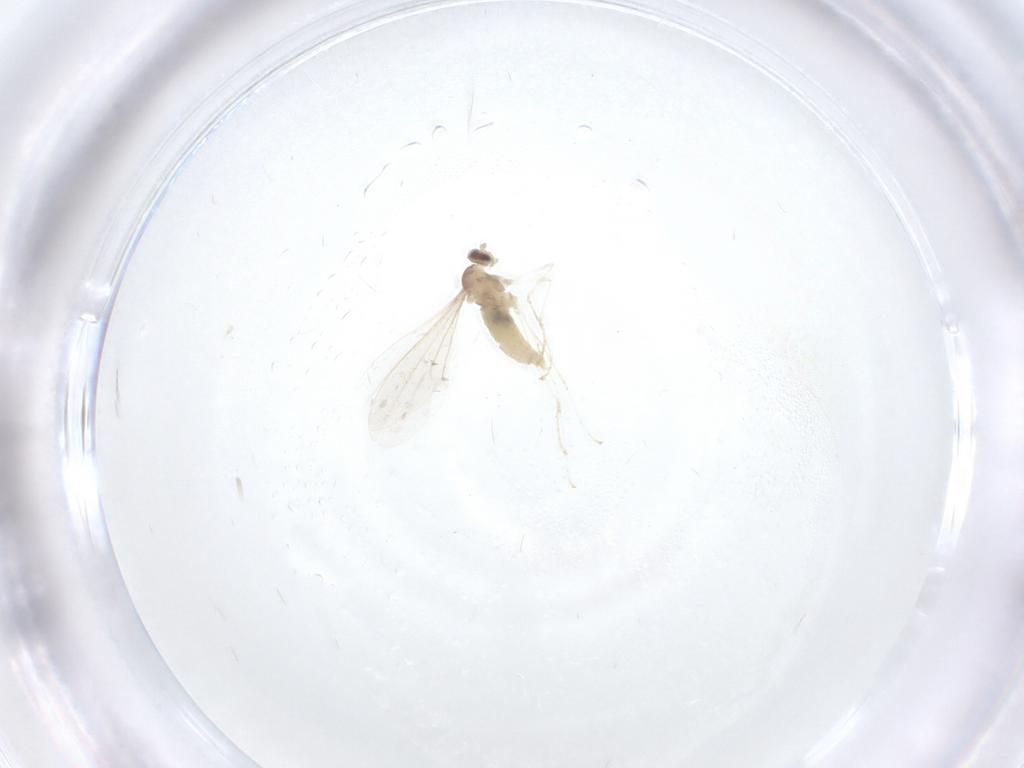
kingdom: Animalia
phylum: Arthropoda
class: Insecta
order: Diptera
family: Cecidomyiidae
